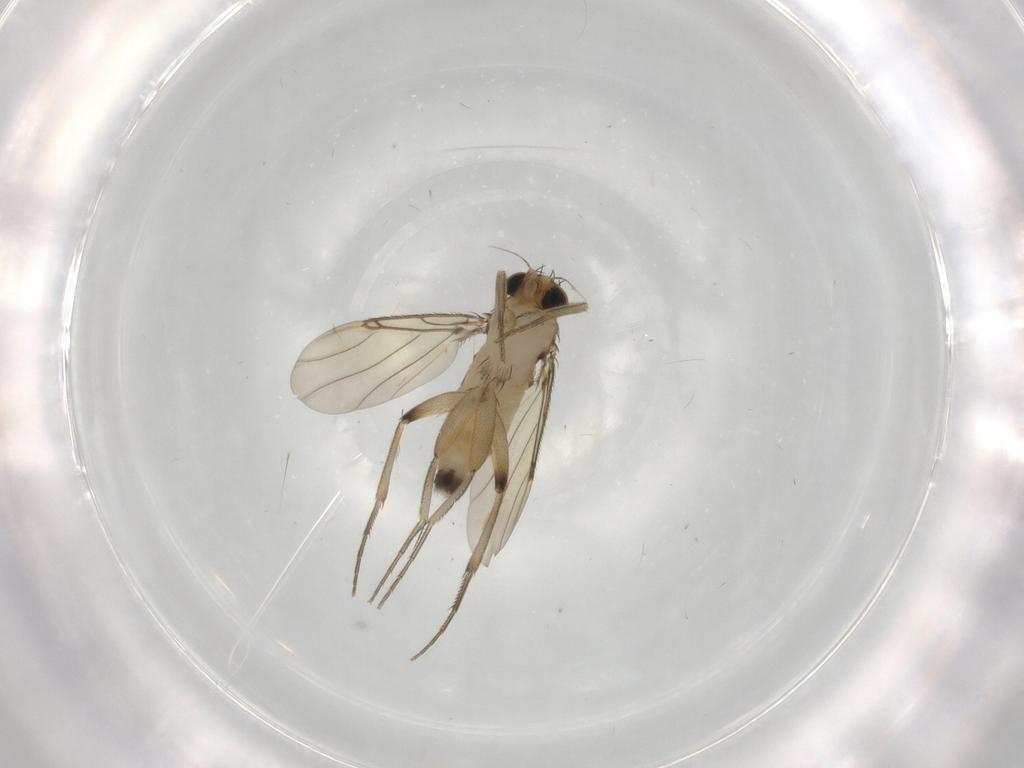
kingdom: Animalia
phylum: Arthropoda
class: Insecta
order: Diptera
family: Phoridae
